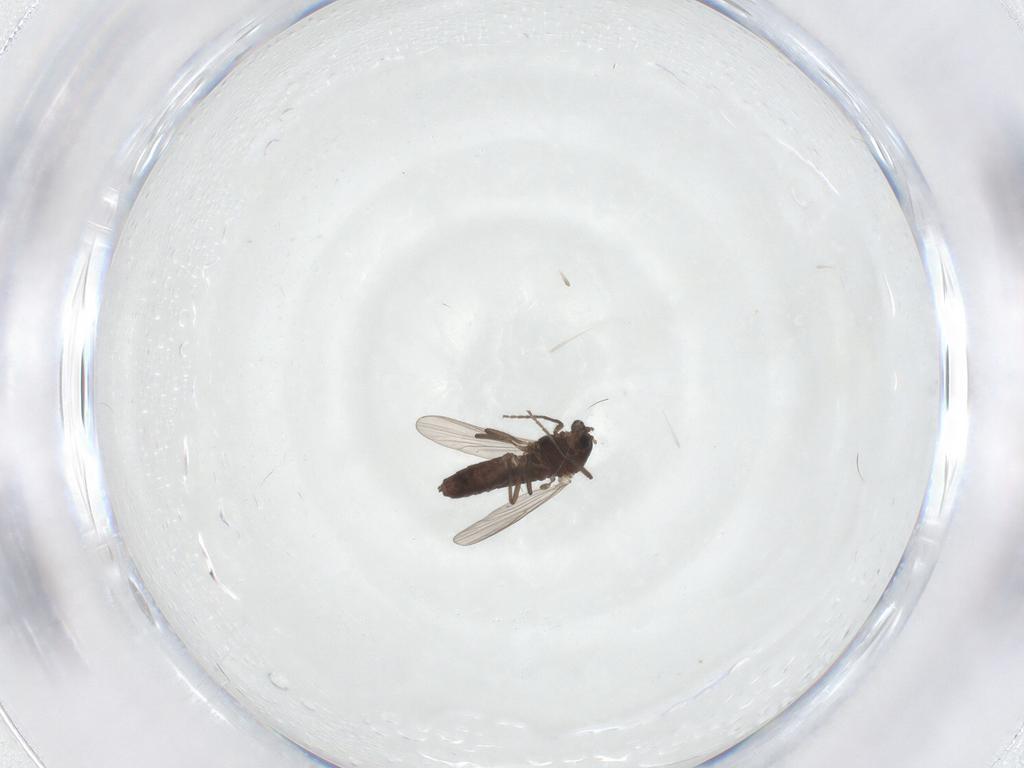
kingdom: Animalia
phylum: Arthropoda
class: Insecta
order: Diptera
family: Chironomidae
